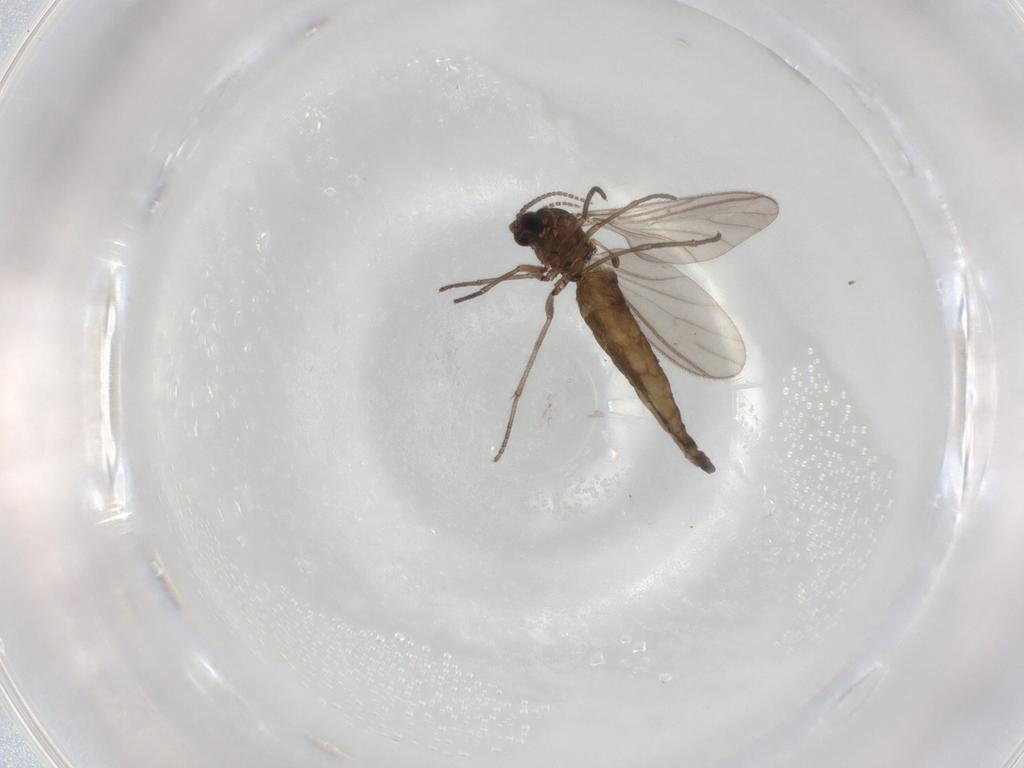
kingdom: Animalia
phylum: Arthropoda
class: Insecta
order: Diptera
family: Sciaridae
